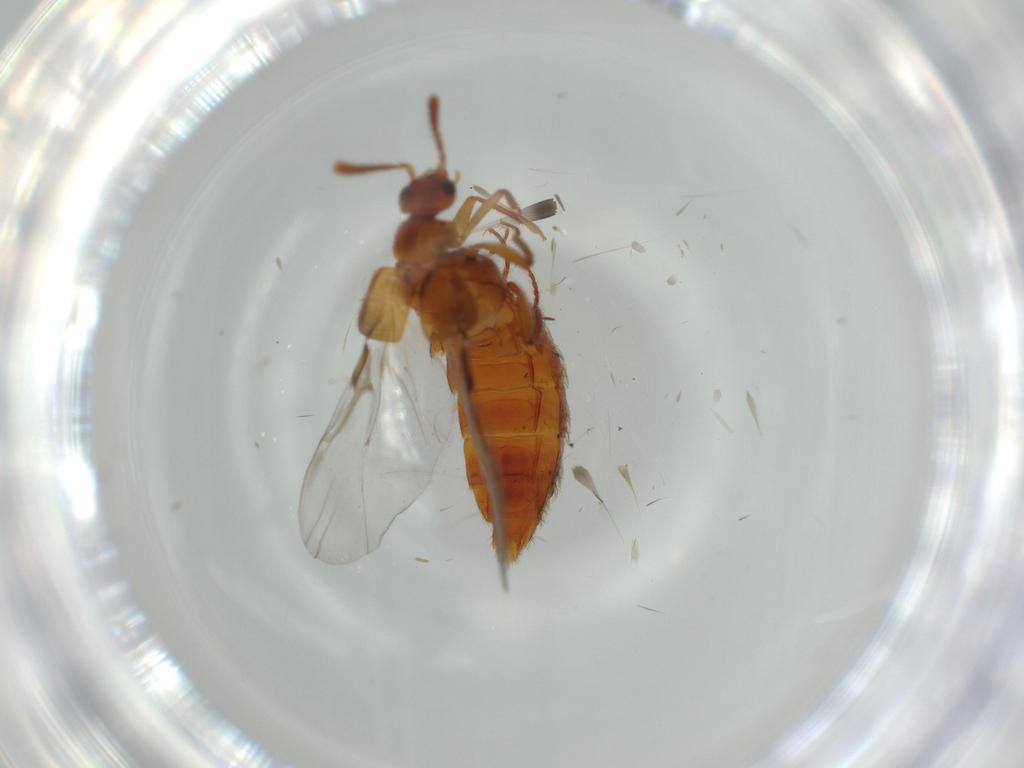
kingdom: Animalia
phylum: Arthropoda
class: Insecta
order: Coleoptera
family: Staphylinidae
